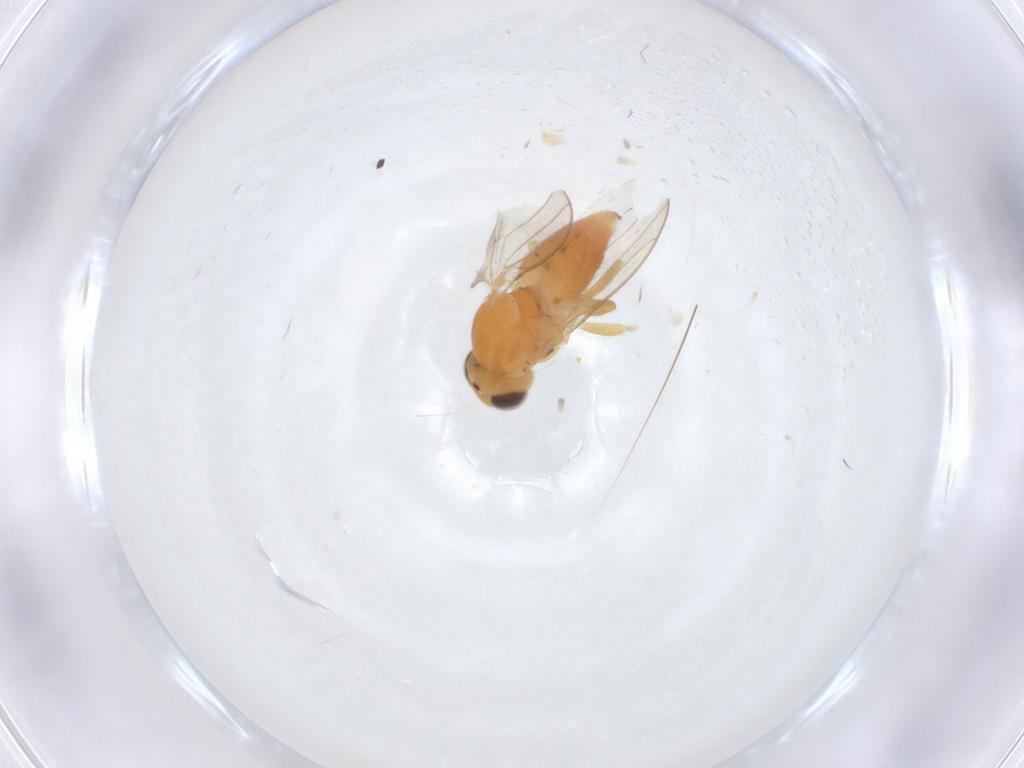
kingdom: Animalia
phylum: Arthropoda
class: Insecta
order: Diptera
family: Chloropidae
